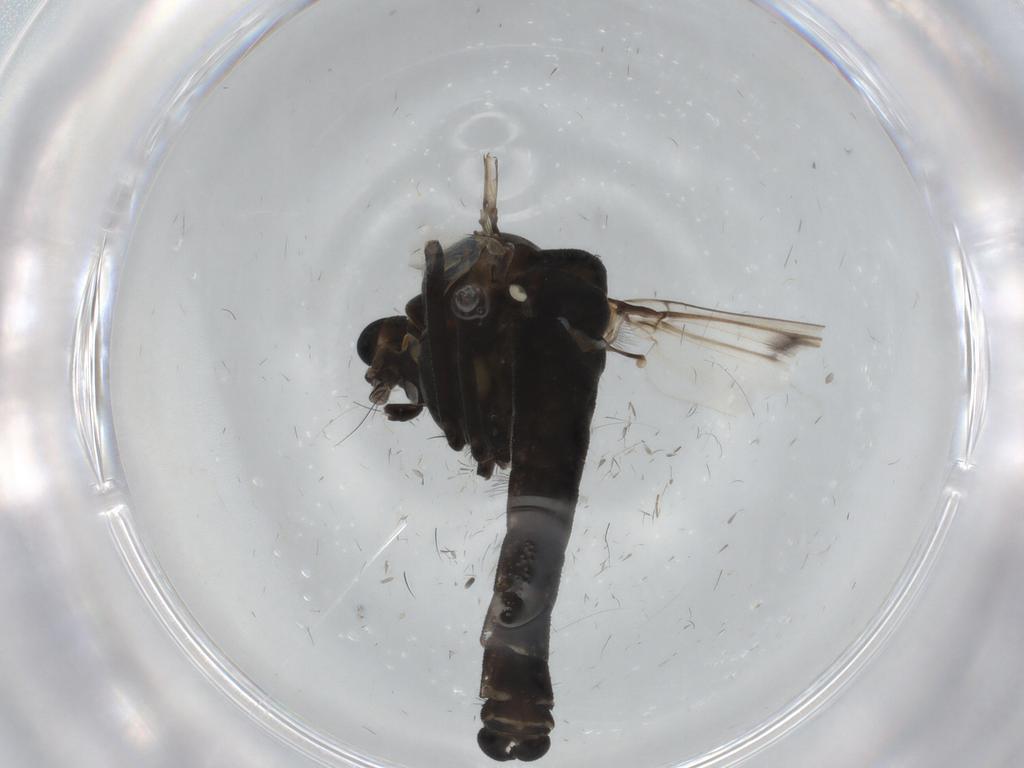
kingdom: Animalia
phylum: Arthropoda
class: Insecta
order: Diptera
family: Chironomidae
